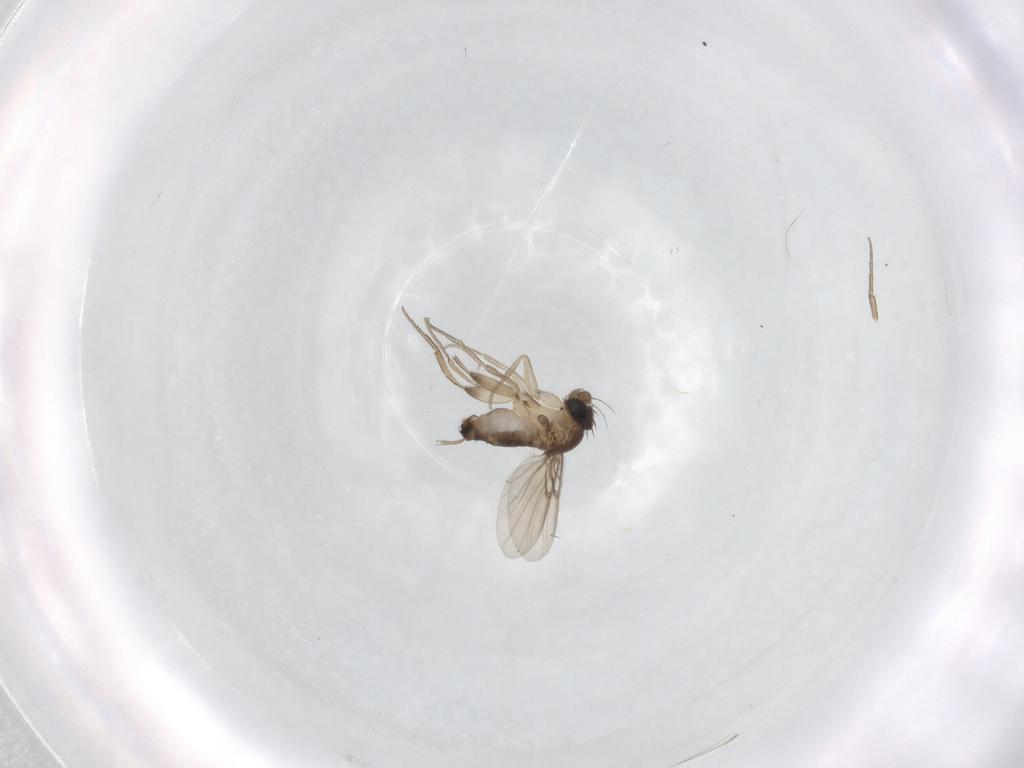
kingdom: Animalia
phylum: Arthropoda
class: Insecta
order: Diptera
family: Phoridae
